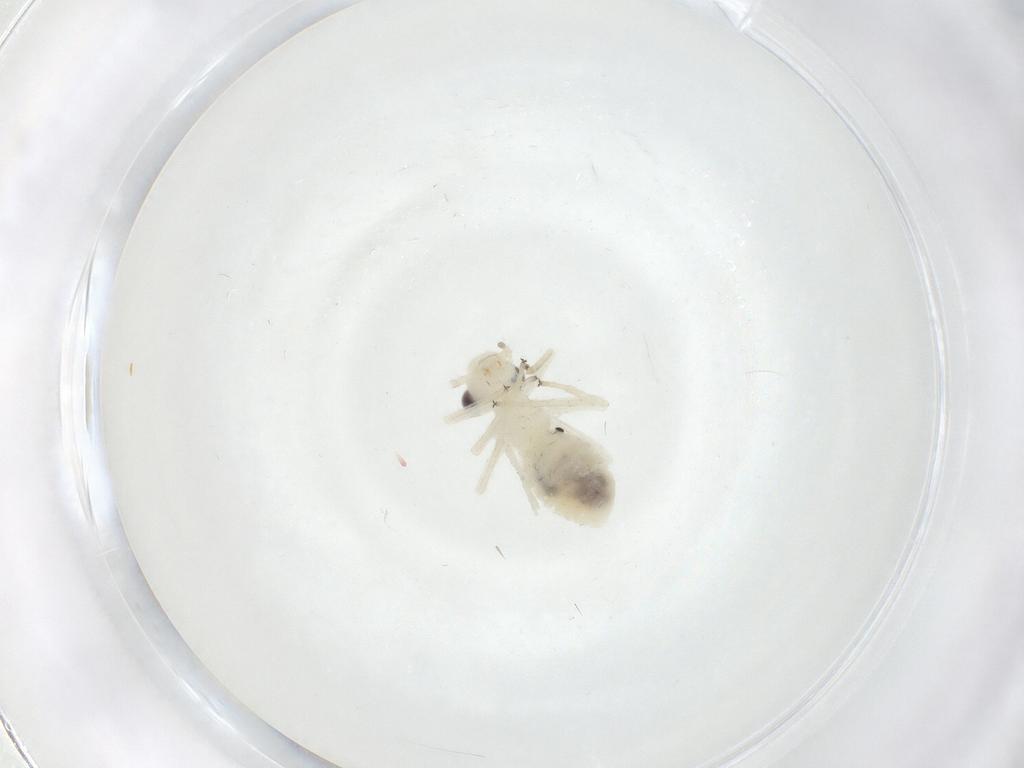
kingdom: Animalia
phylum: Arthropoda
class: Insecta
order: Psocodea
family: Caeciliusidae
